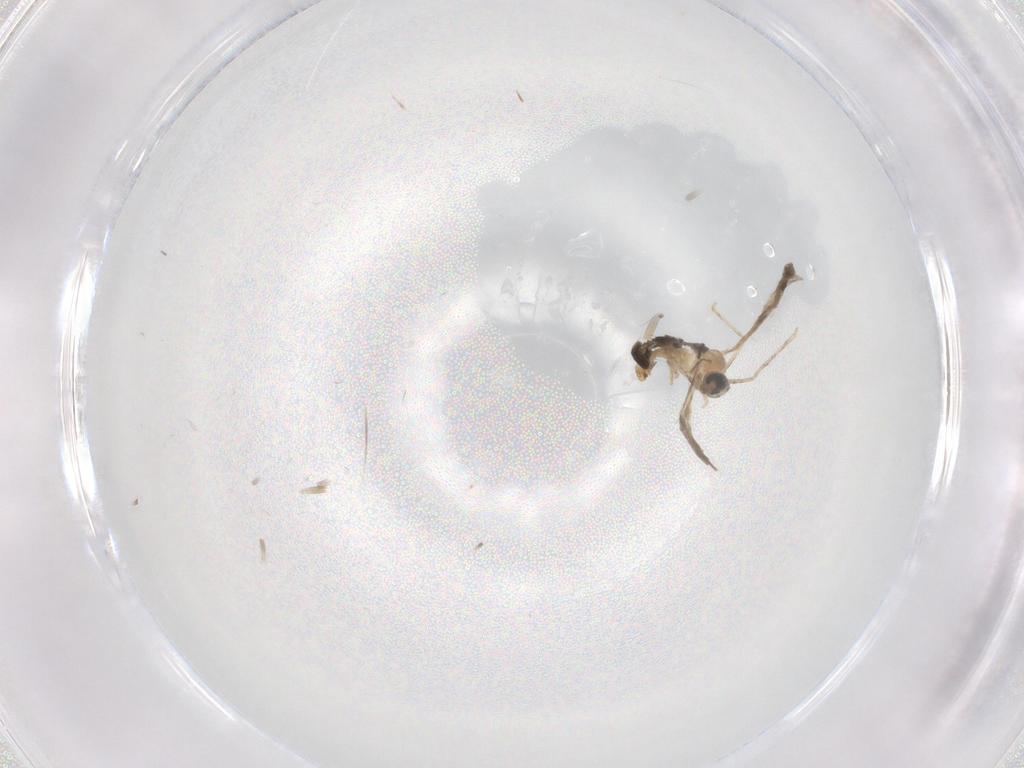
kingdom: Animalia
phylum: Arthropoda
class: Insecta
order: Diptera
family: Cecidomyiidae
